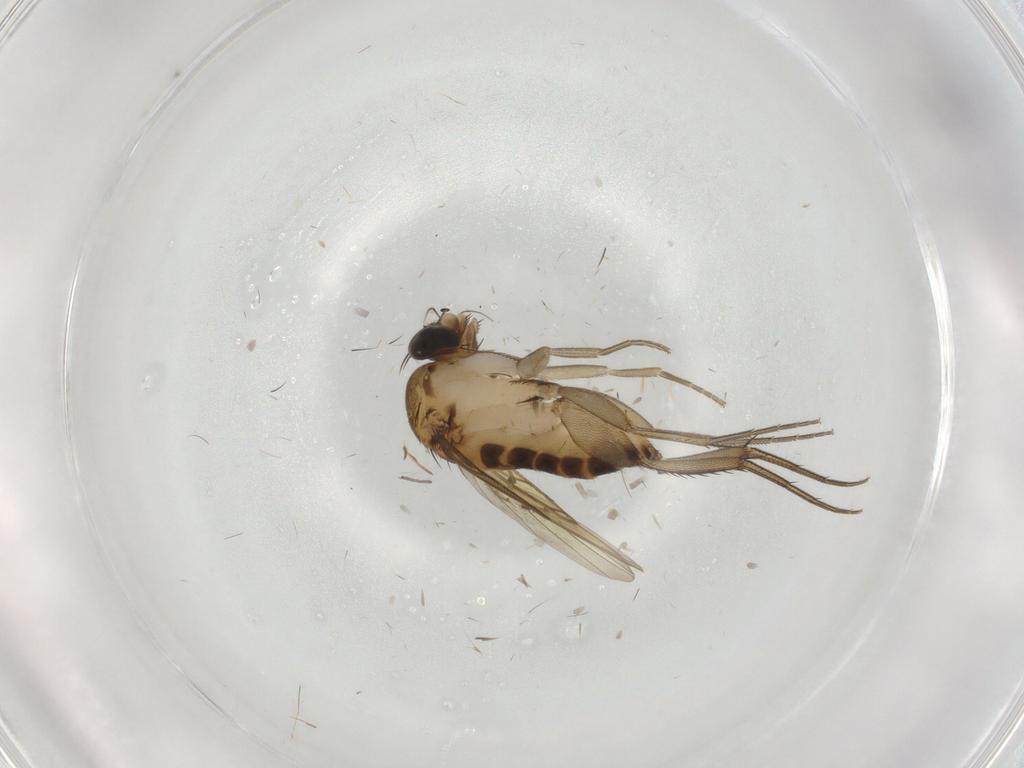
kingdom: Animalia
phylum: Arthropoda
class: Insecta
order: Diptera
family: Phoridae
